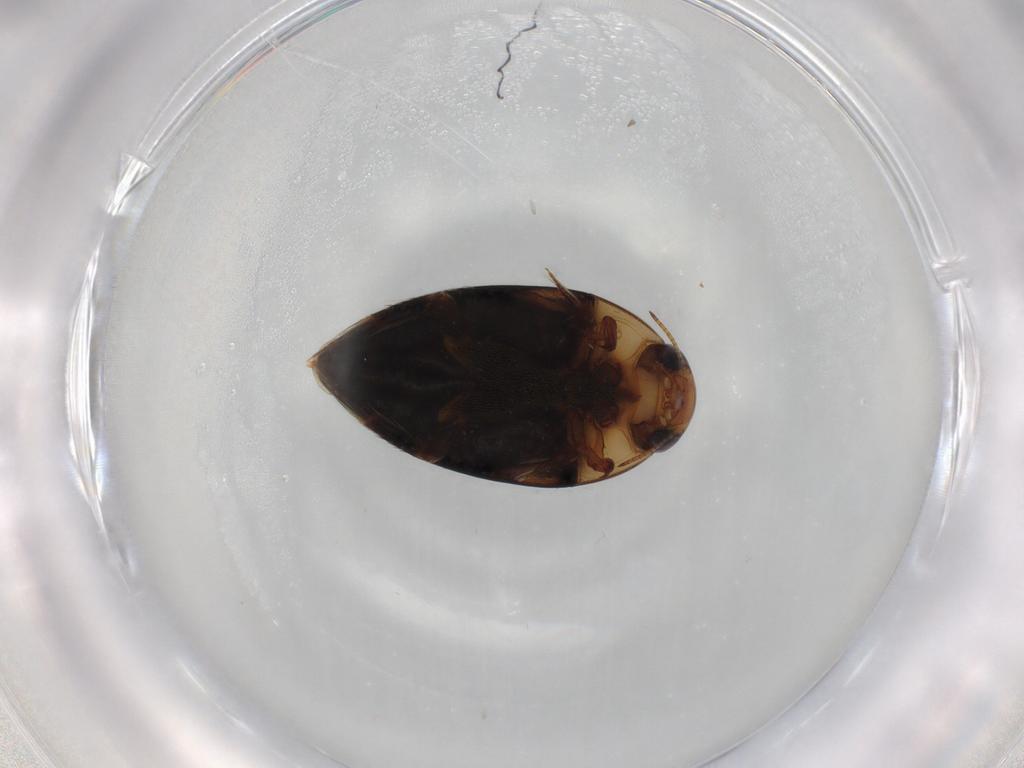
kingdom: Animalia
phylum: Arthropoda
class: Insecta
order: Coleoptera
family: Noteridae
